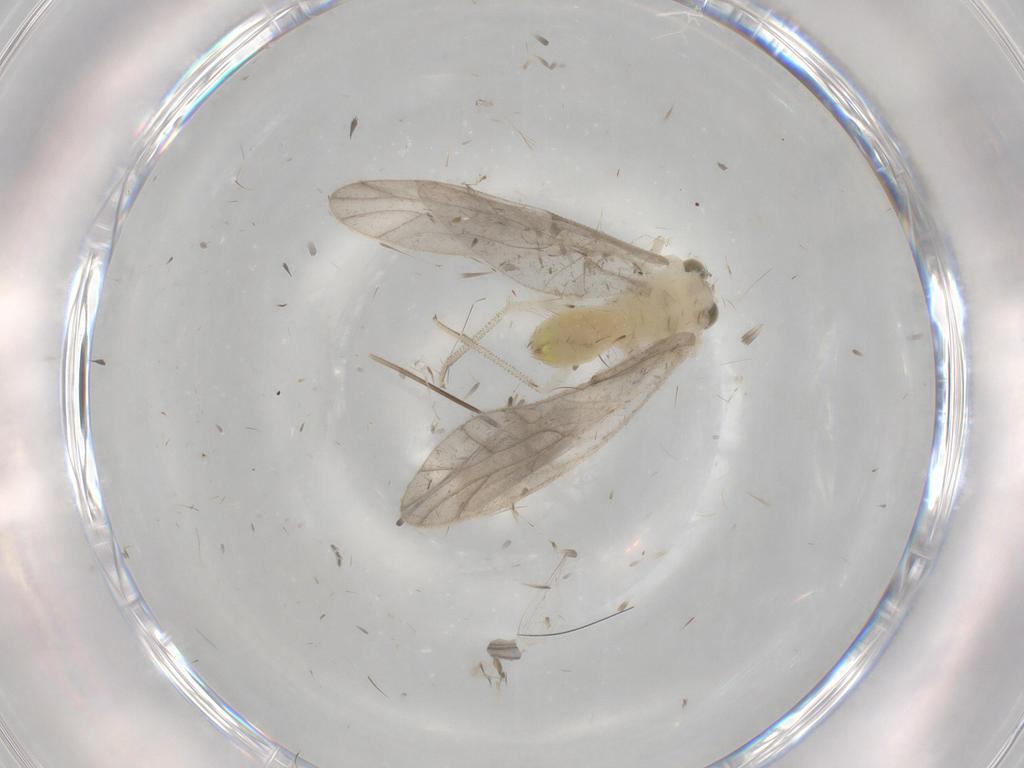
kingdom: Animalia
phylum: Arthropoda
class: Insecta
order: Psocodea
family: Caeciliusidae
